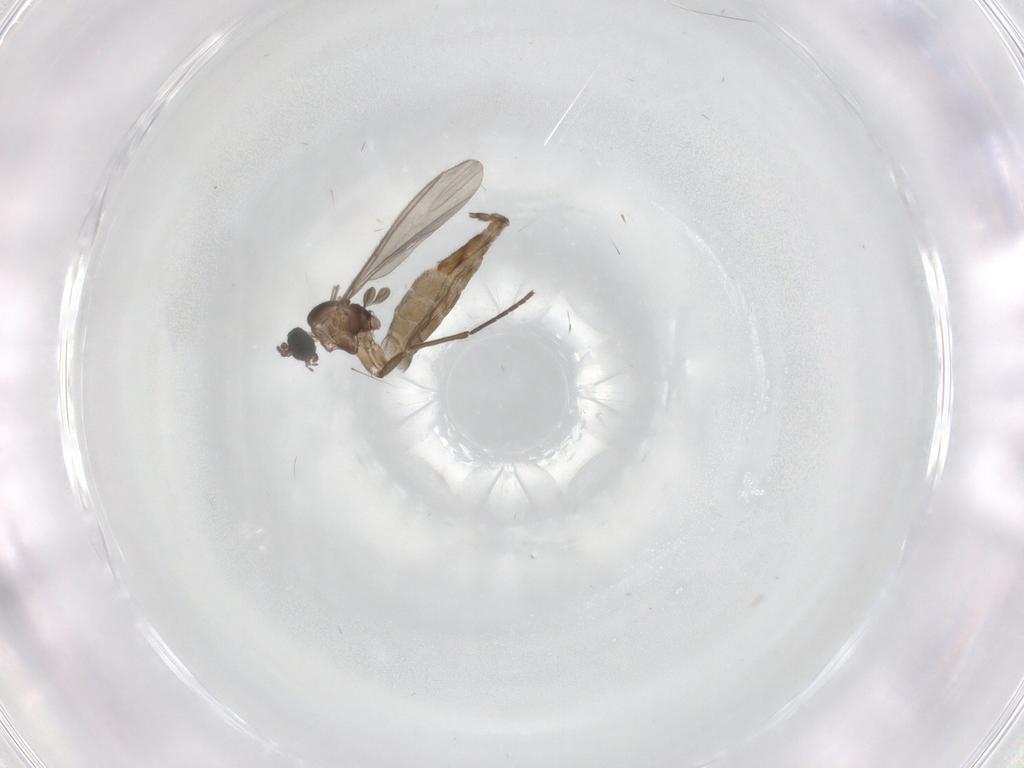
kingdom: Animalia
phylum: Arthropoda
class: Insecta
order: Diptera
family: Phoridae
